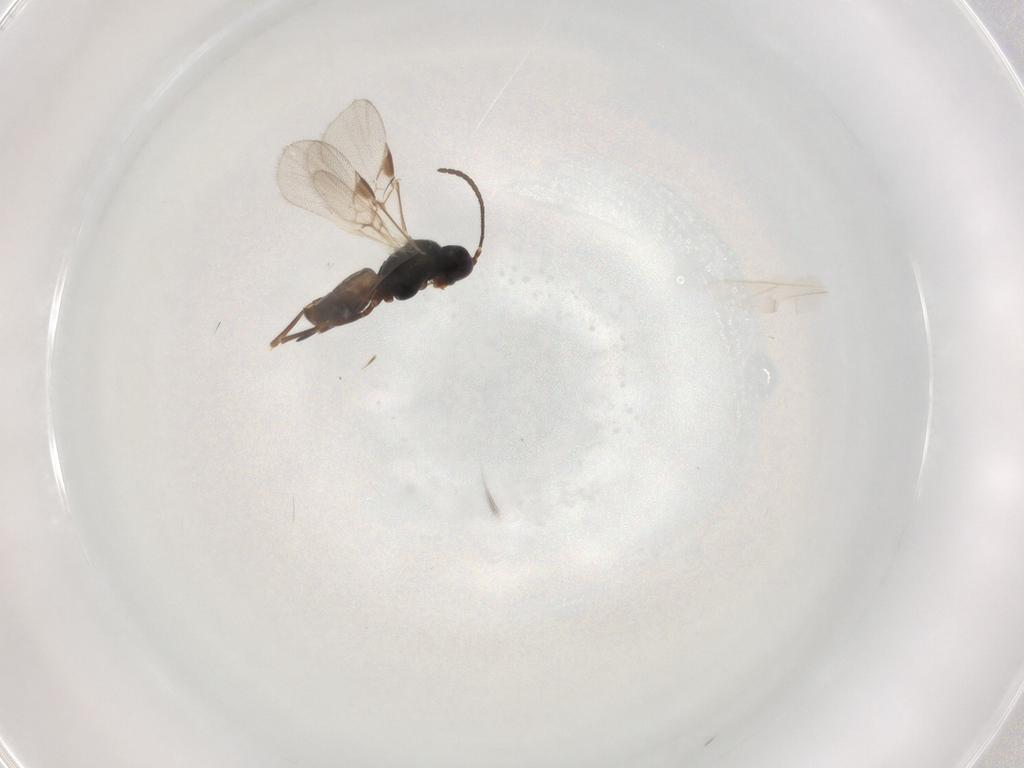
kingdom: Animalia
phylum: Arthropoda
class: Insecta
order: Hymenoptera
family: Braconidae
